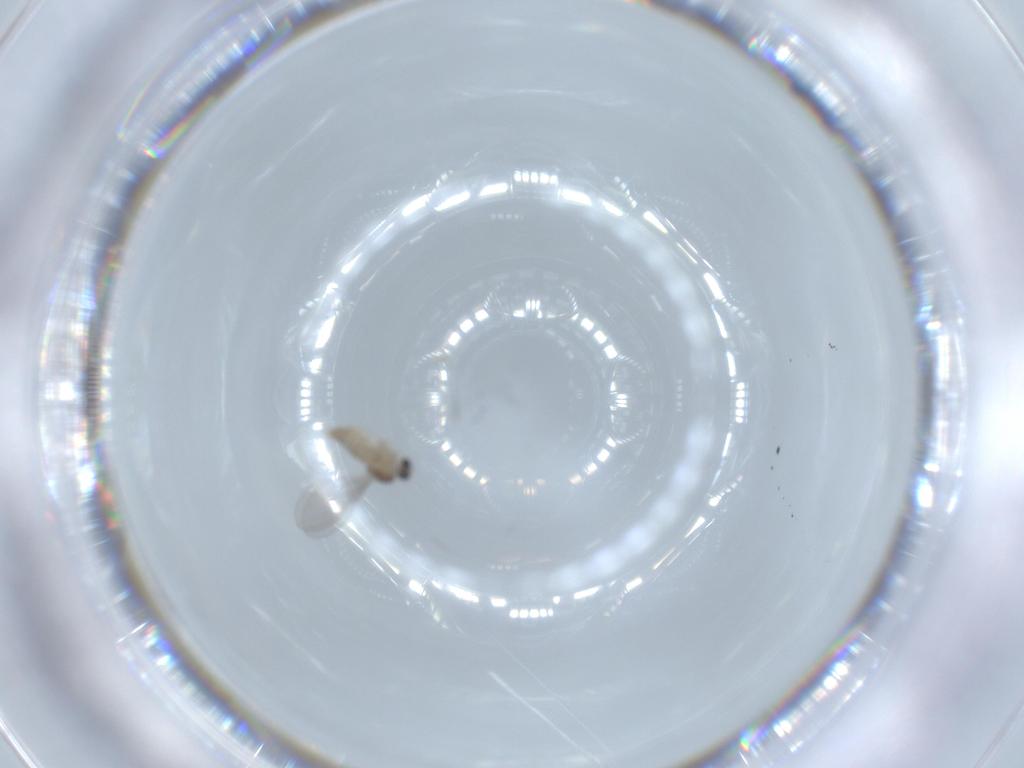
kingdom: Animalia
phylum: Arthropoda
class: Insecta
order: Diptera
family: Cecidomyiidae
